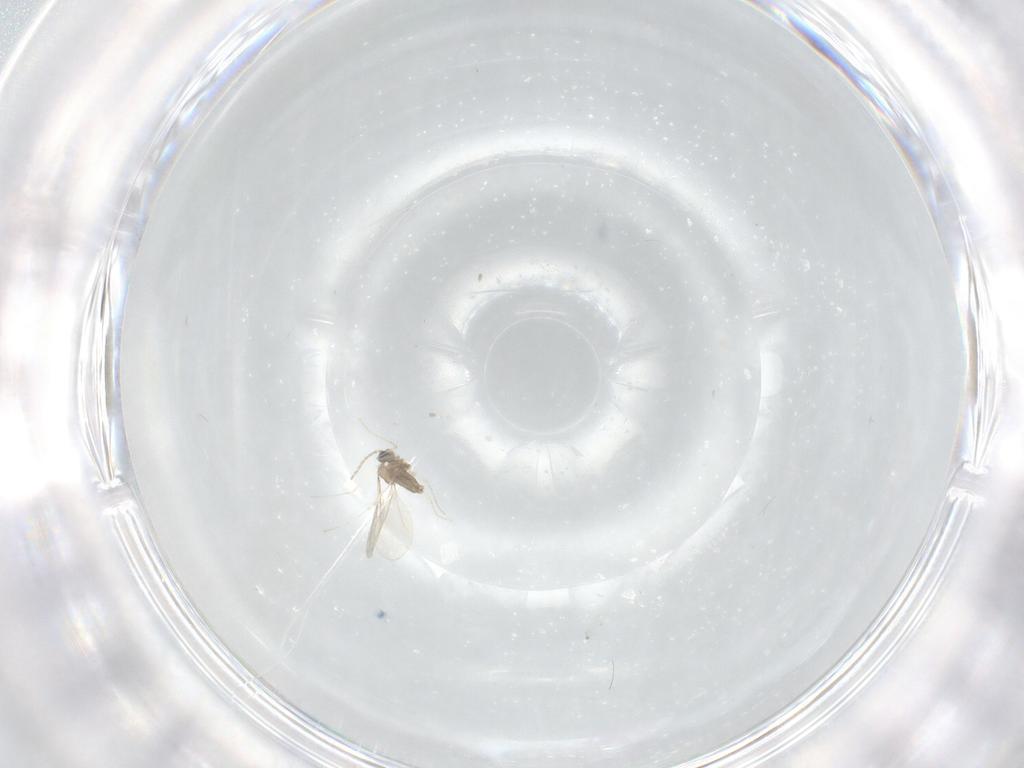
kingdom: Animalia
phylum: Arthropoda
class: Insecta
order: Diptera
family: Cecidomyiidae
